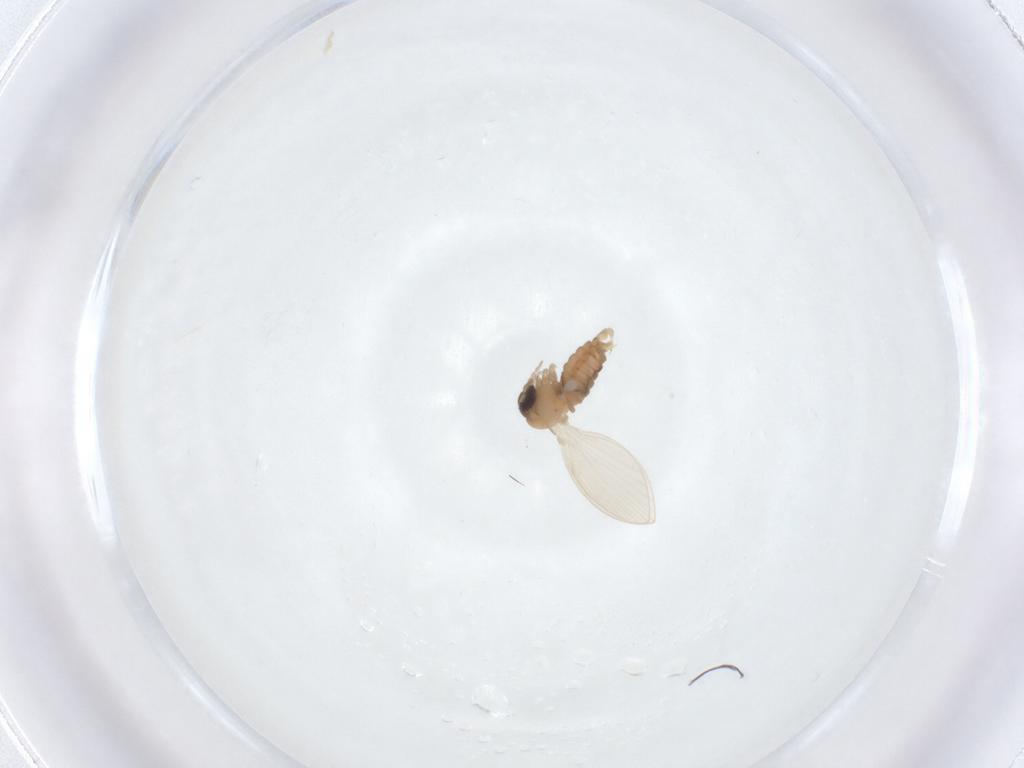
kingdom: Animalia
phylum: Arthropoda
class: Insecta
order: Diptera
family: Psychodidae
